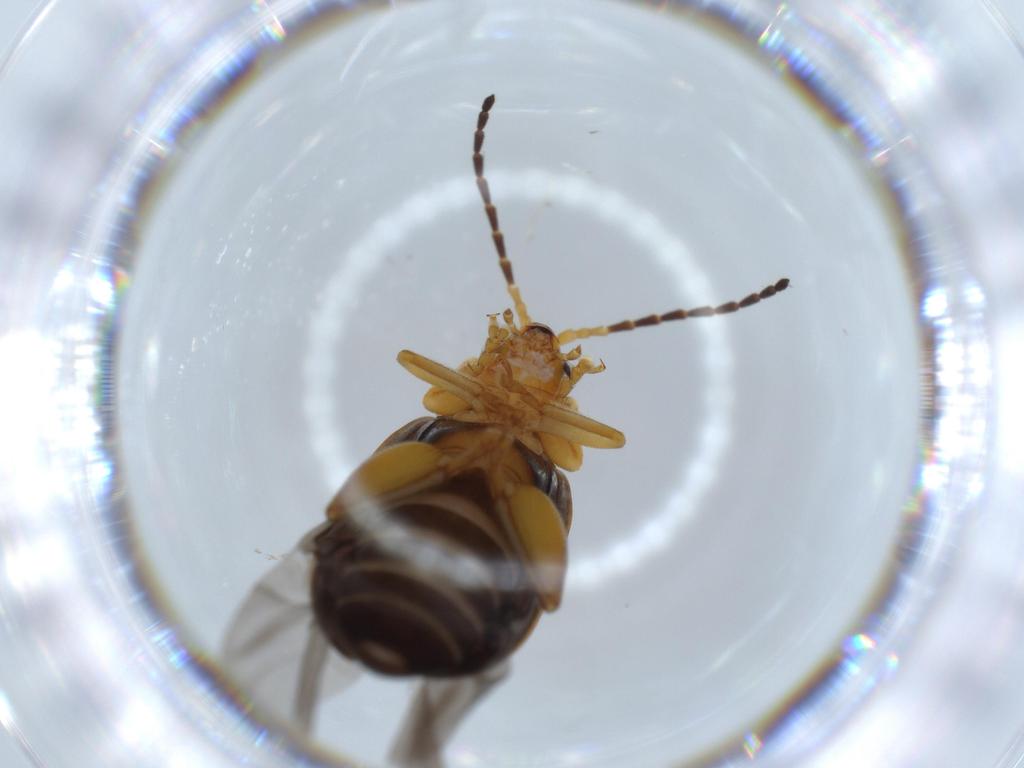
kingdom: Animalia
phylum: Arthropoda
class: Insecta
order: Coleoptera
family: Chrysomelidae
